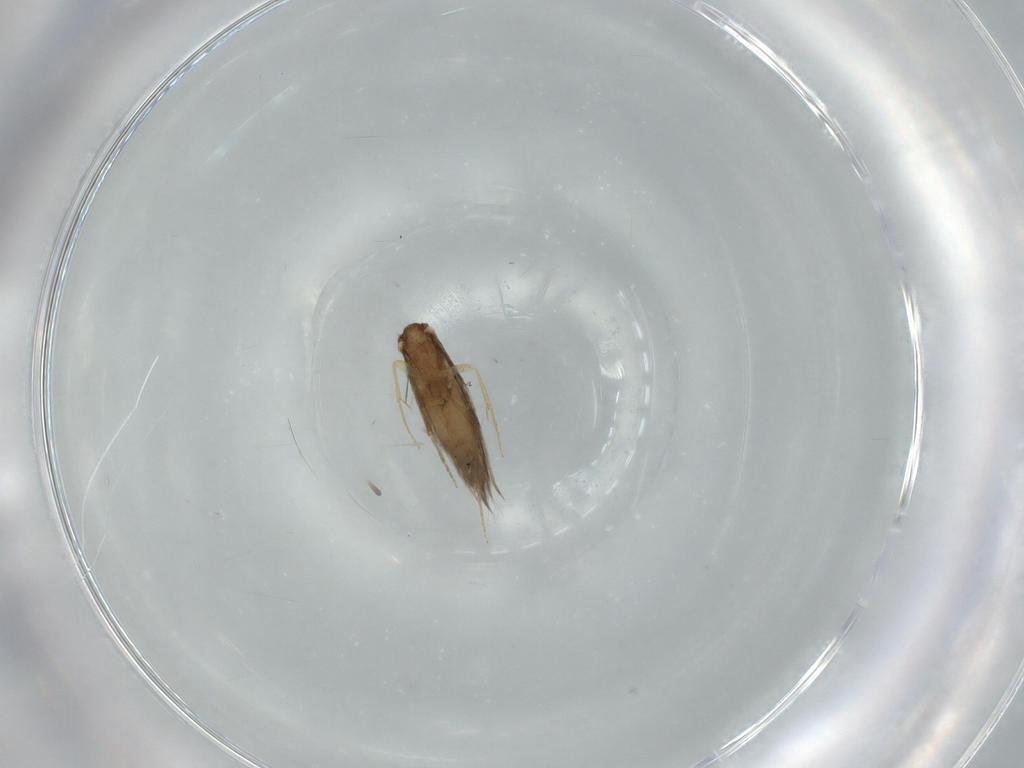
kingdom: Animalia
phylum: Arthropoda
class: Insecta
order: Lepidoptera
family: Cosmopterigidae
